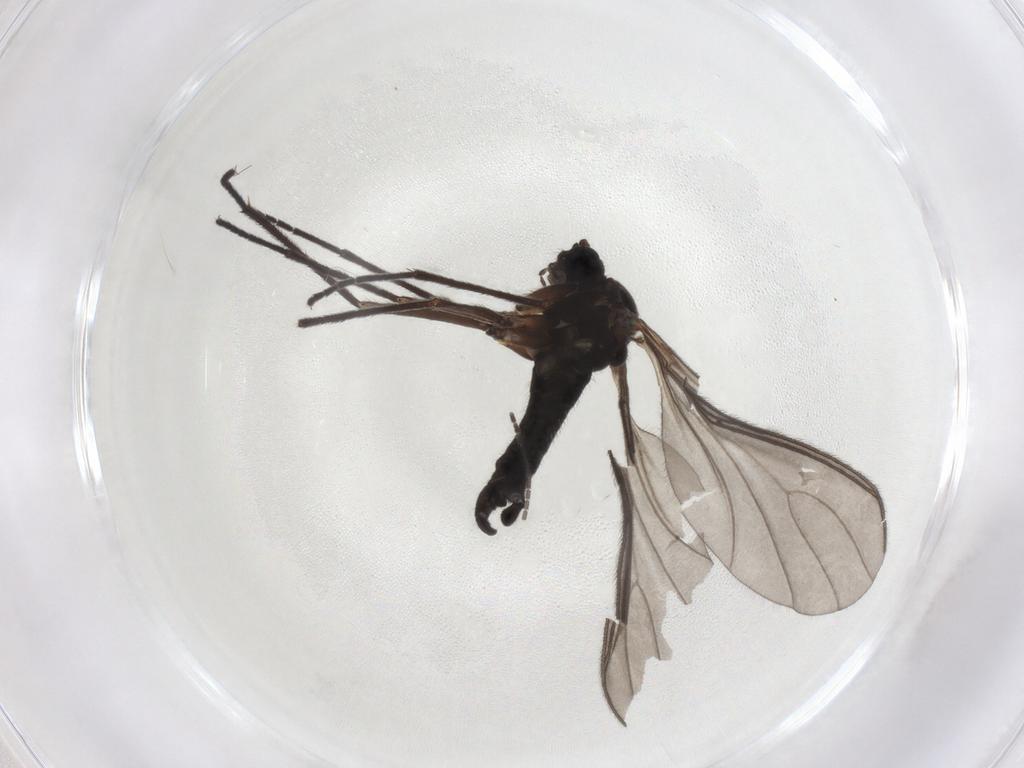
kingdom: Animalia
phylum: Arthropoda
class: Insecta
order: Diptera
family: Sciaridae
